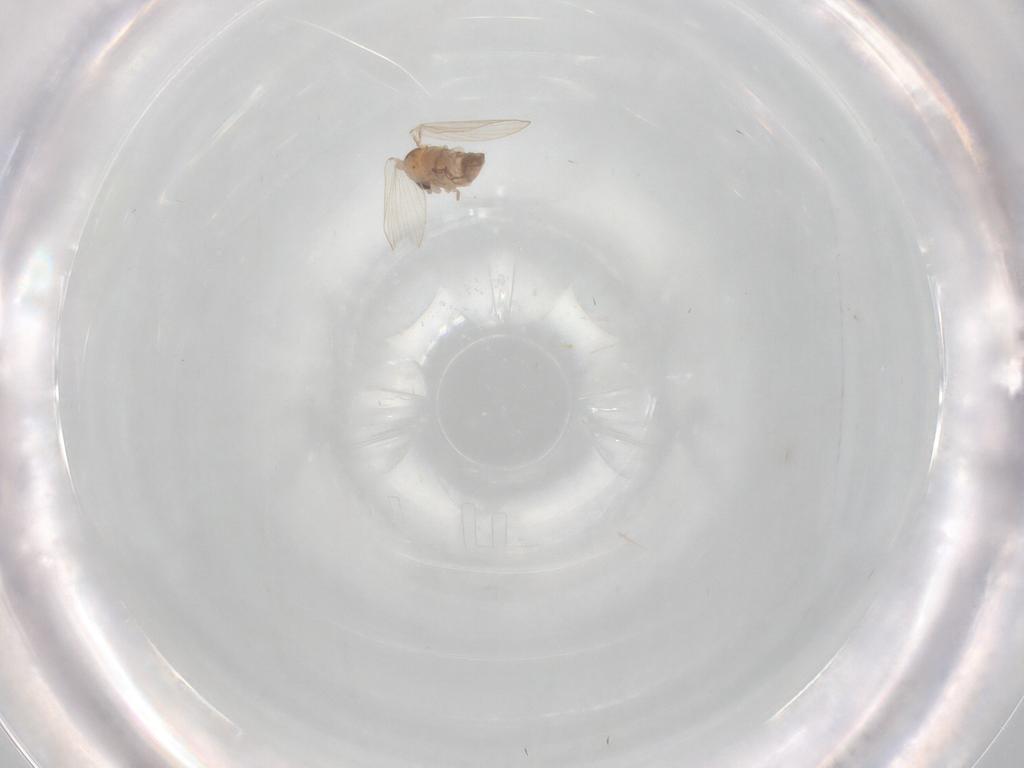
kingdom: Animalia
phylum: Arthropoda
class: Insecta
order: Diptera
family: Psychodidae
